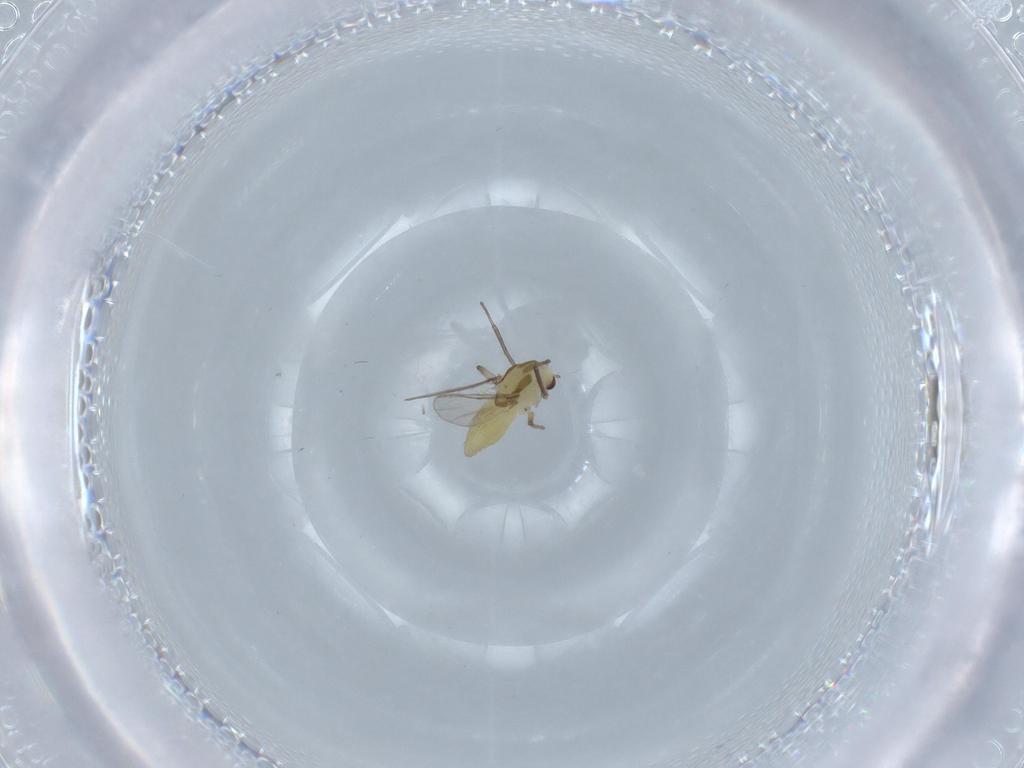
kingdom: Animalia
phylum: Arthropoda
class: Insecta
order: Diptera
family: Chironomidae
